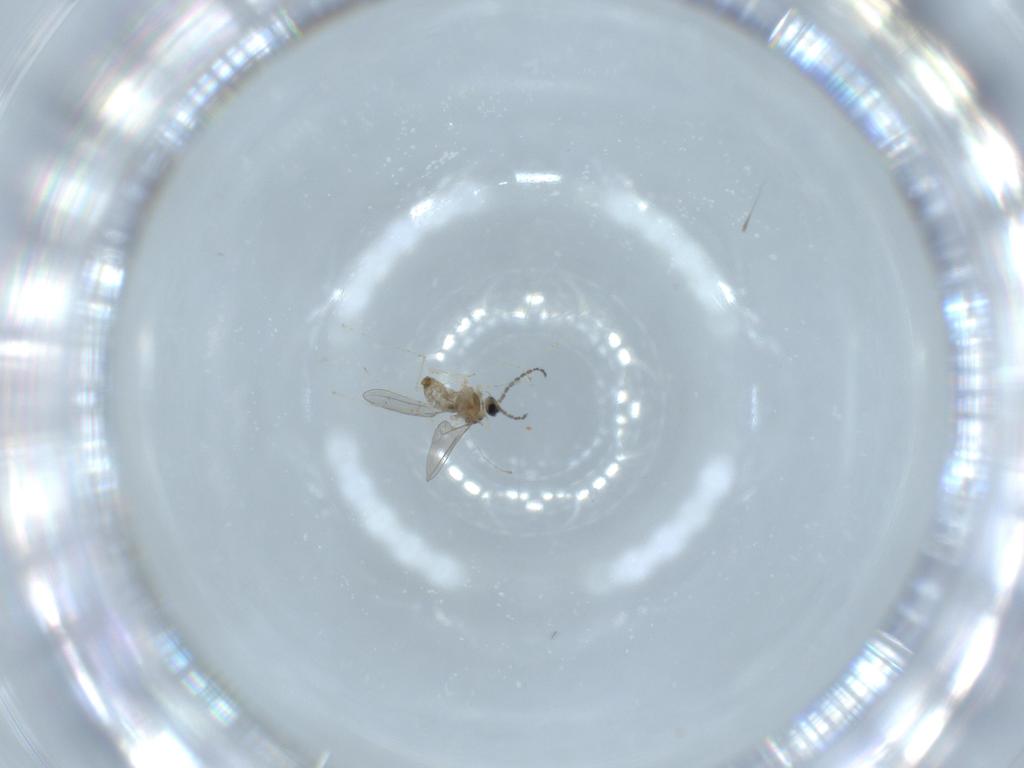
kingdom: Animalia
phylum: Arthropoda
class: Insecta
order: Diptera
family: Cecidomyiidae
